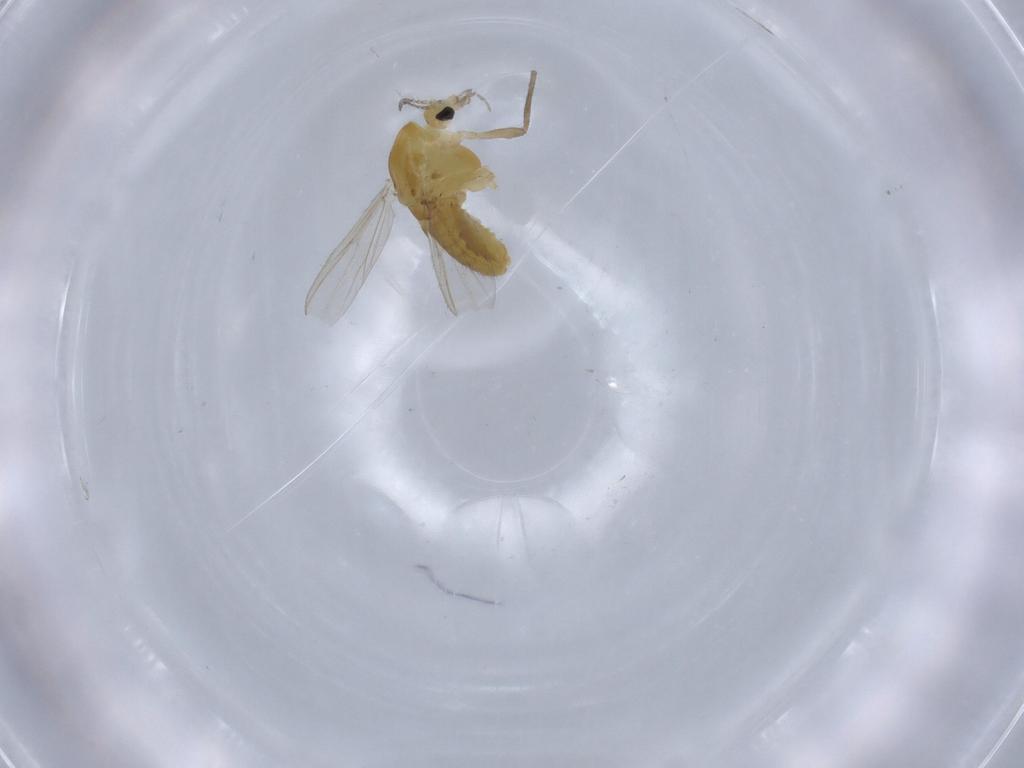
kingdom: Animalia
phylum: Arthropoda
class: Insecta
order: Diptera
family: Chironomidae
